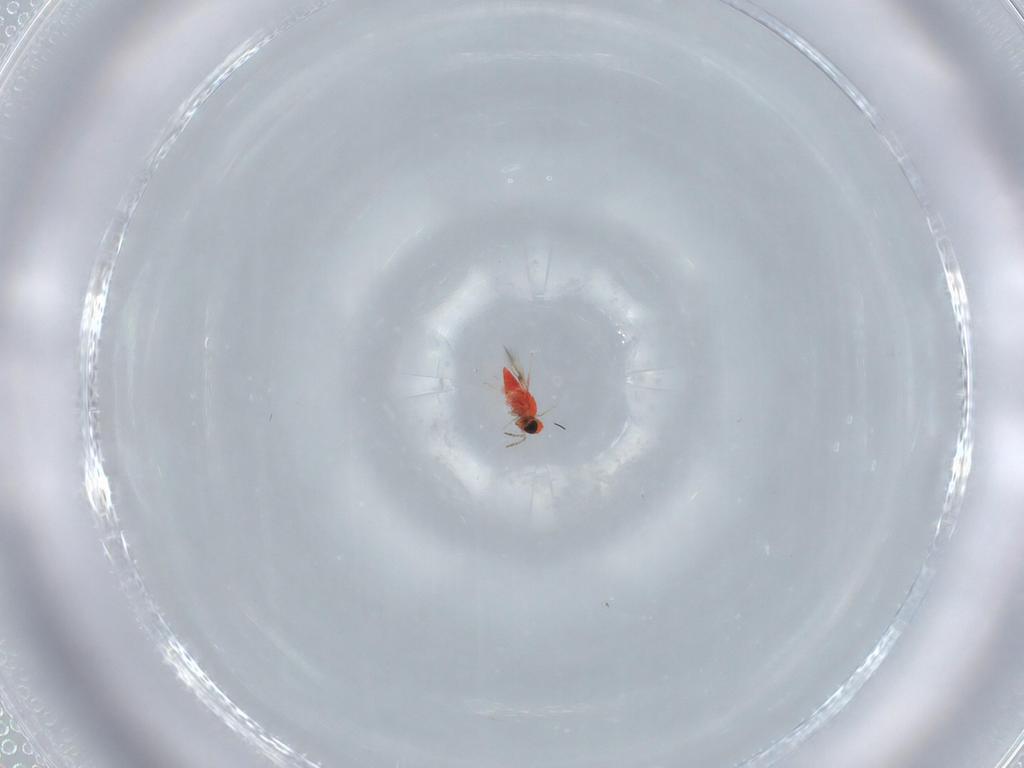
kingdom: Animalia
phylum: Arthropoda
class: Insecta
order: Hymenoptera
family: Trichogrammatidae
